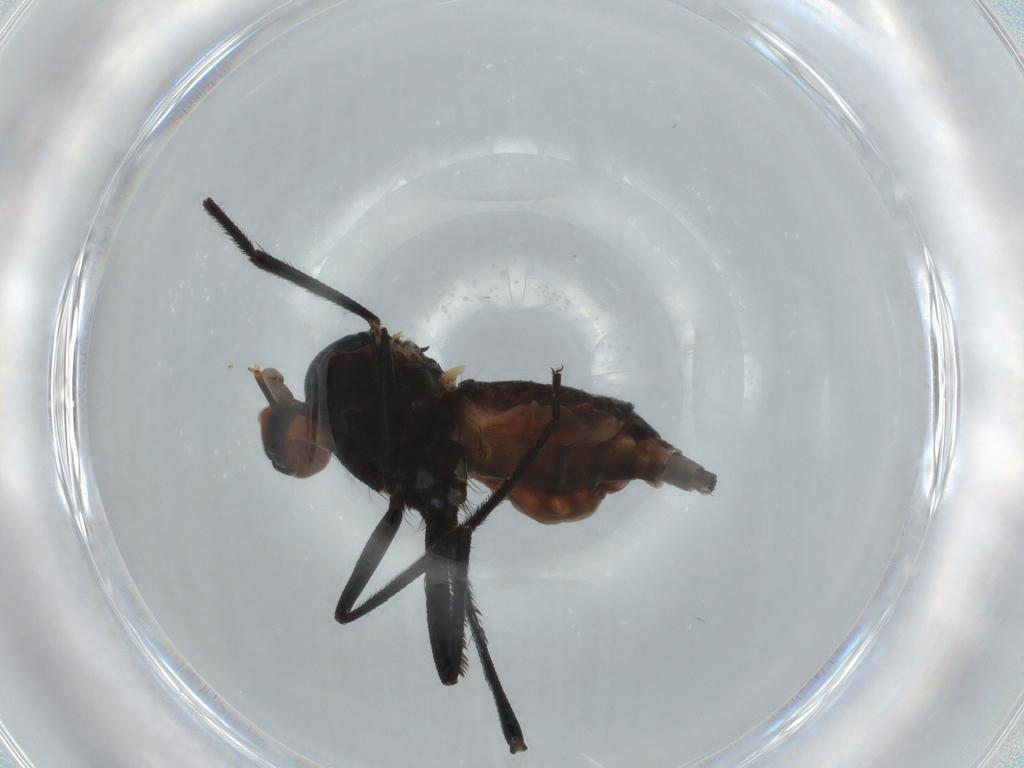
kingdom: Animalia
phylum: Arthropoda
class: Insecta
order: Diptera
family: Empididae
